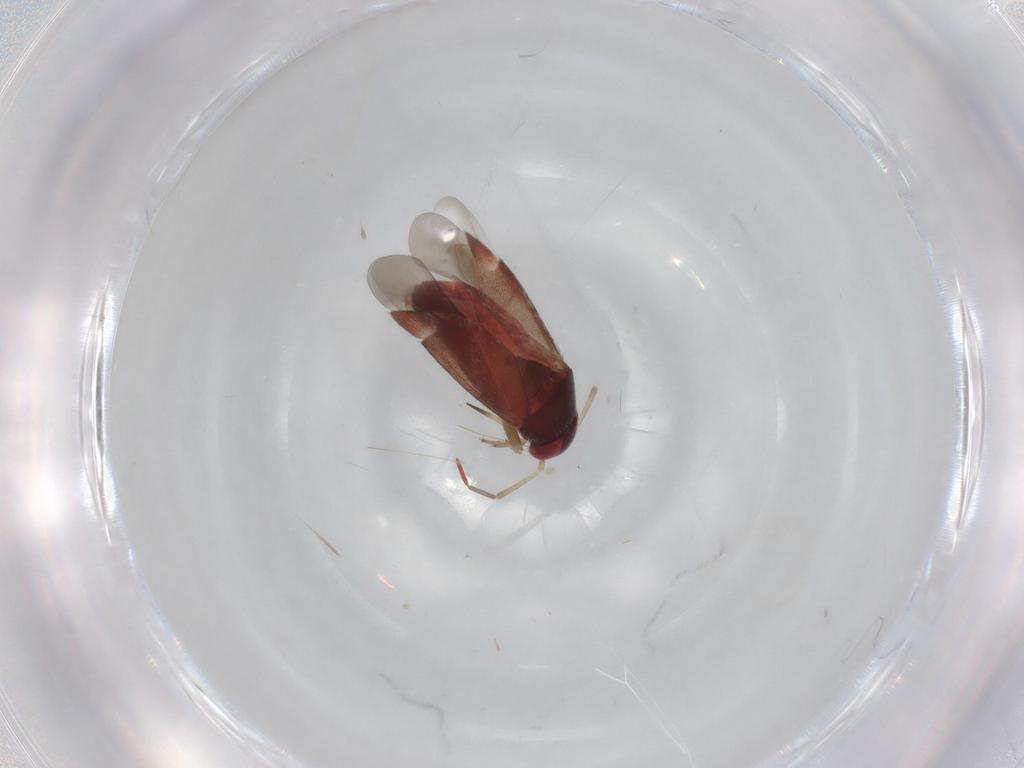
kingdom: Animalia
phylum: Arthropoda
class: Insecta
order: Hemiptera
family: Miridae
